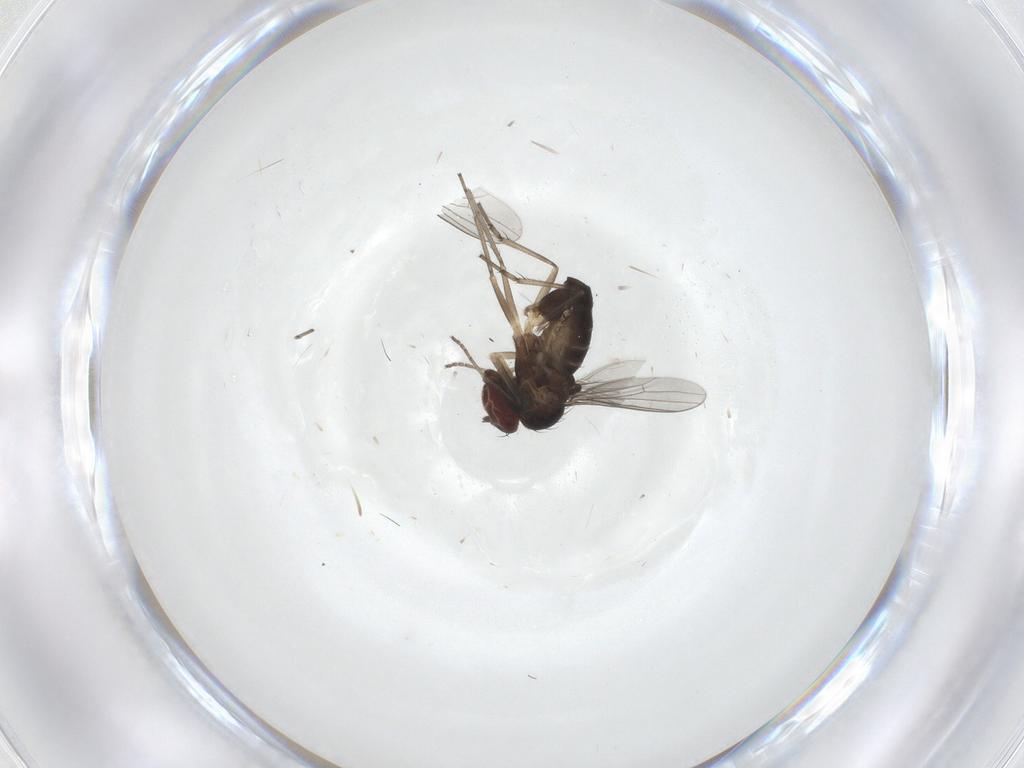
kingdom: Animalia
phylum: Arthropoda
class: Insecta
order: Diptera
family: Cecidomyiidae
